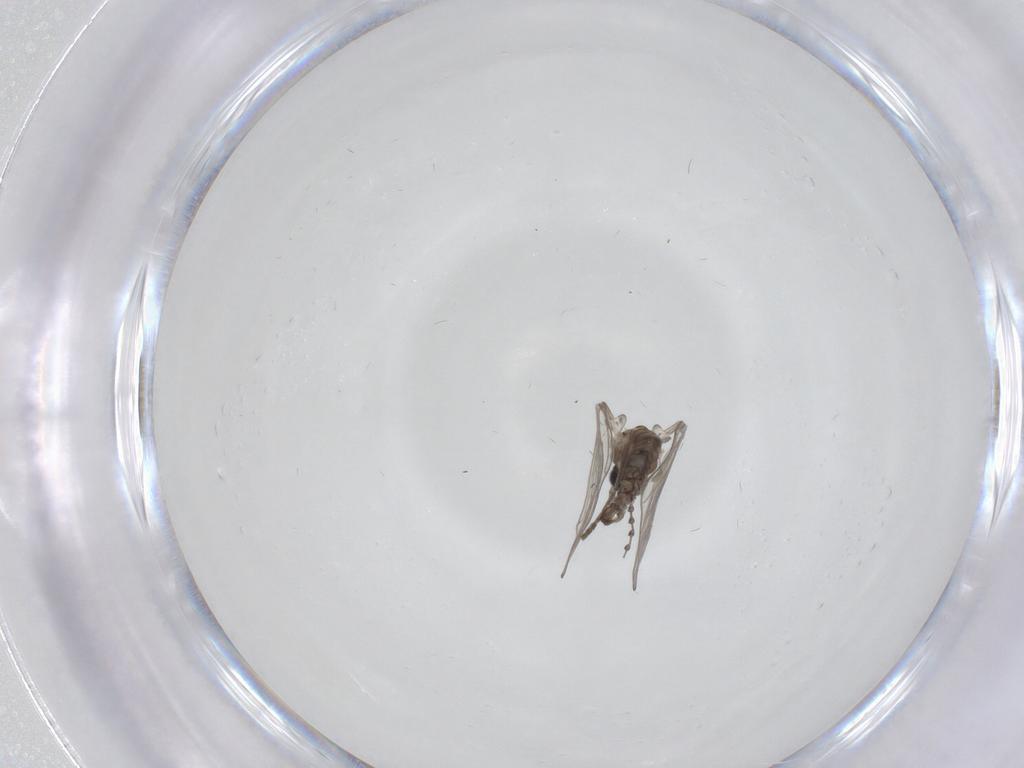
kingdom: Animalia
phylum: Arthropoda
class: Insecta
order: Diptera
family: Psychodidae
